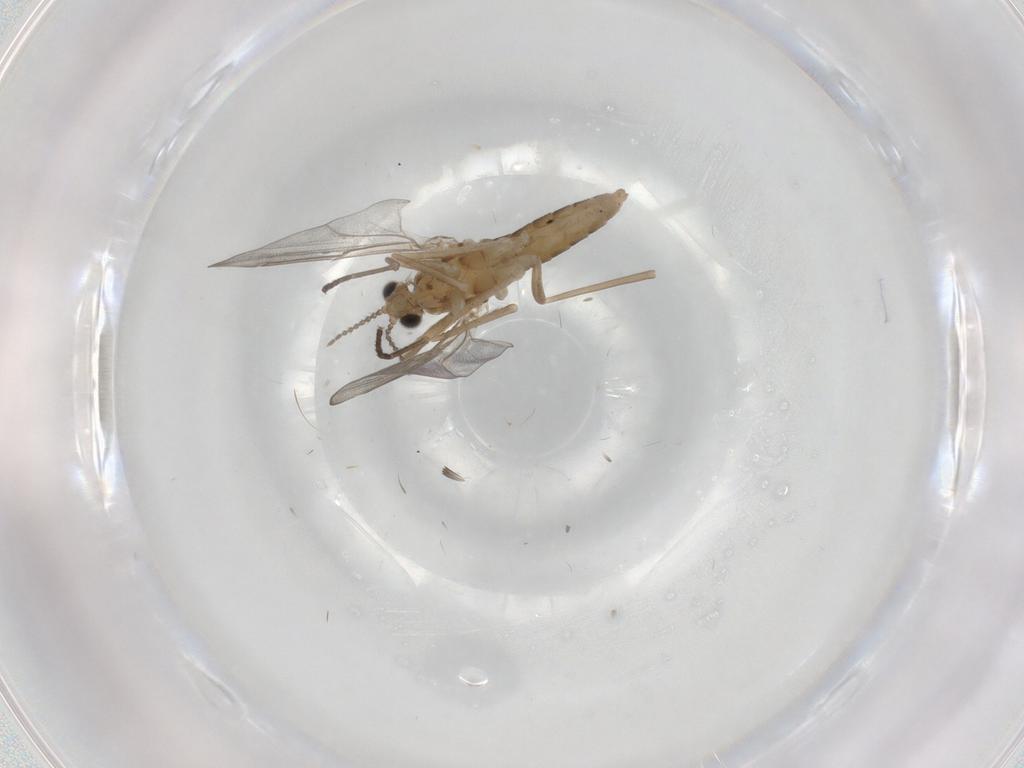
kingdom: Animalia
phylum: Arthropoda
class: Insecta
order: Diptera
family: Cecidomyiidae
